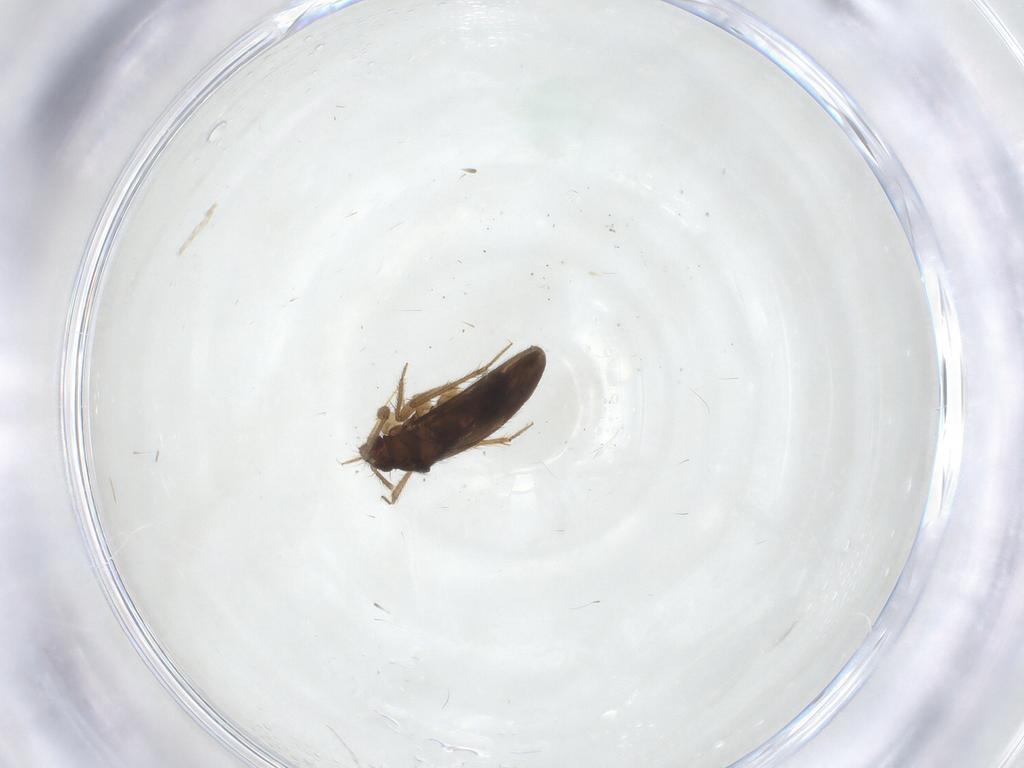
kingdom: Animalia
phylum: Arthropoda
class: Insecta
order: Hemiptera
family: Ceratocombidae
